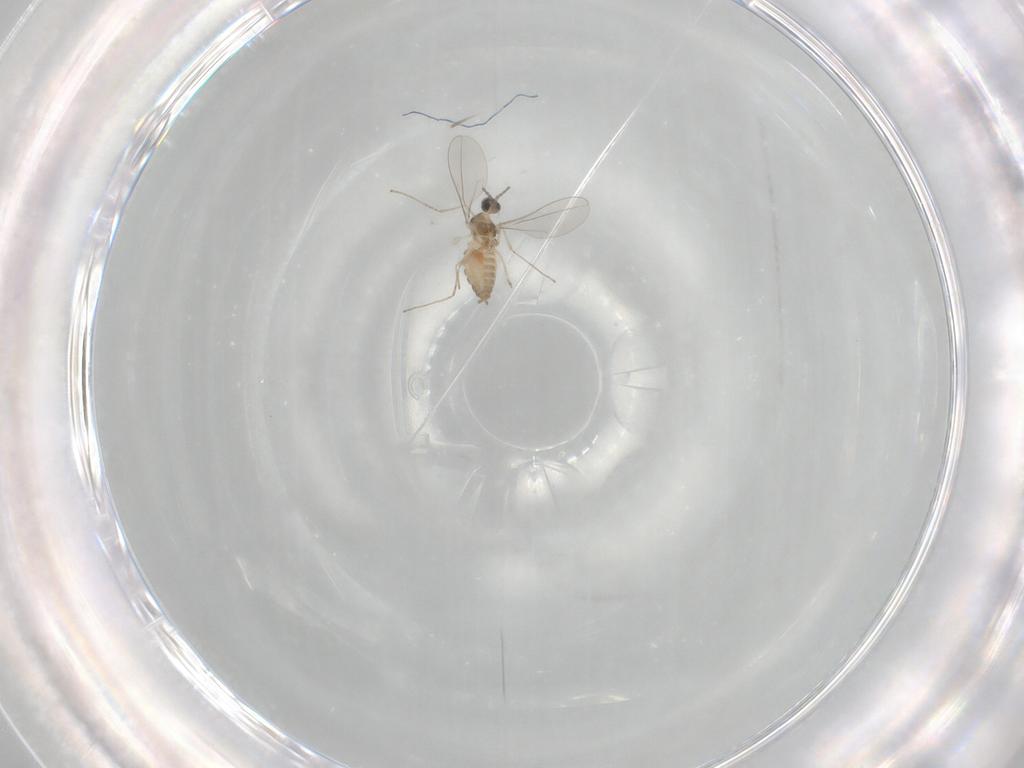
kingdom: Animalia
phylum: Arthropoda
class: Insecta
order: Diptera
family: Cecidomyiidae
